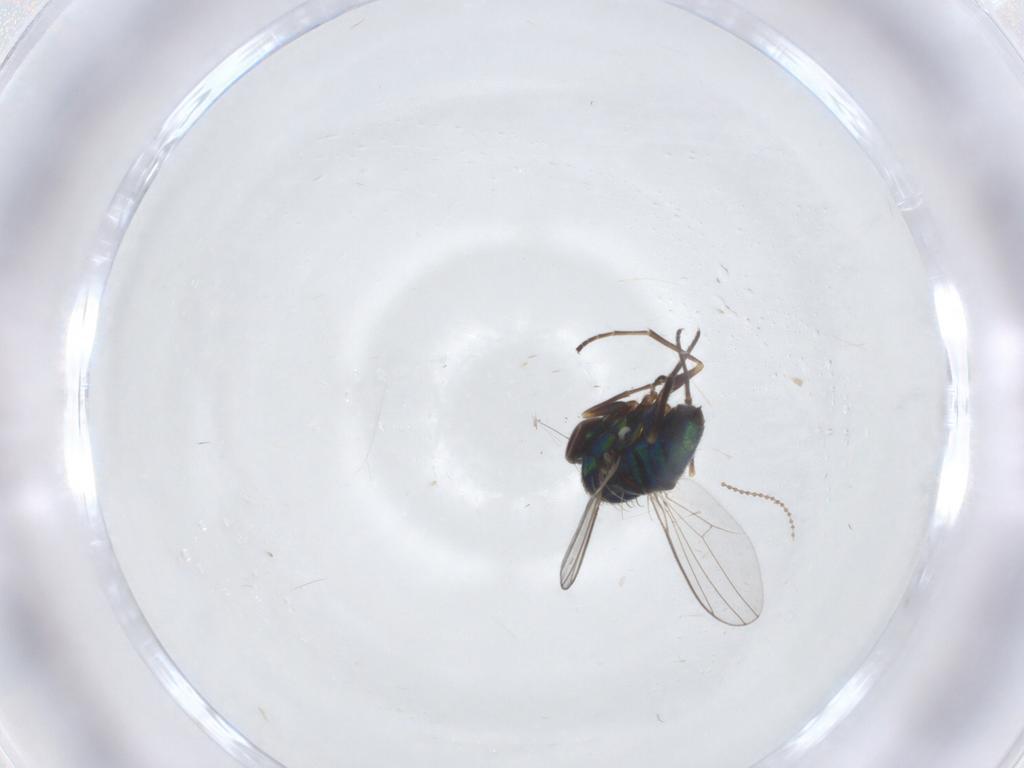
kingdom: Animalia
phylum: Arthropoda
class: Insecta
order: Diptera
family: Dolichopodidae
